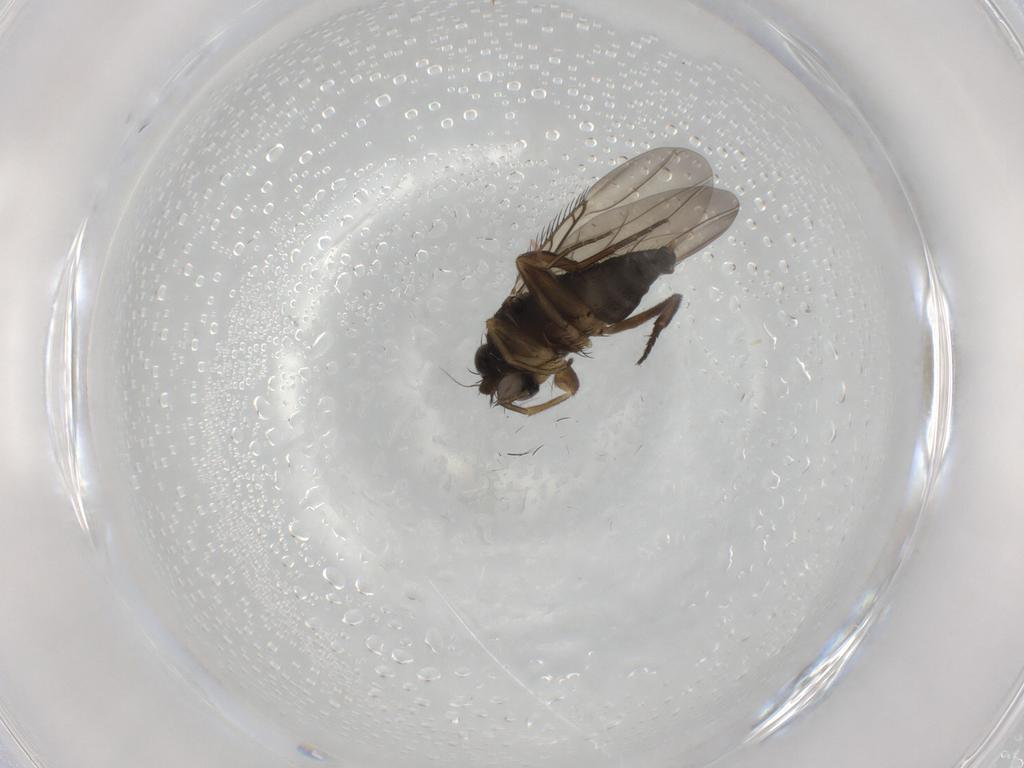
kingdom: Animalia
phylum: Arthropoda
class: Insecta
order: Diptera
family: Phoridae
